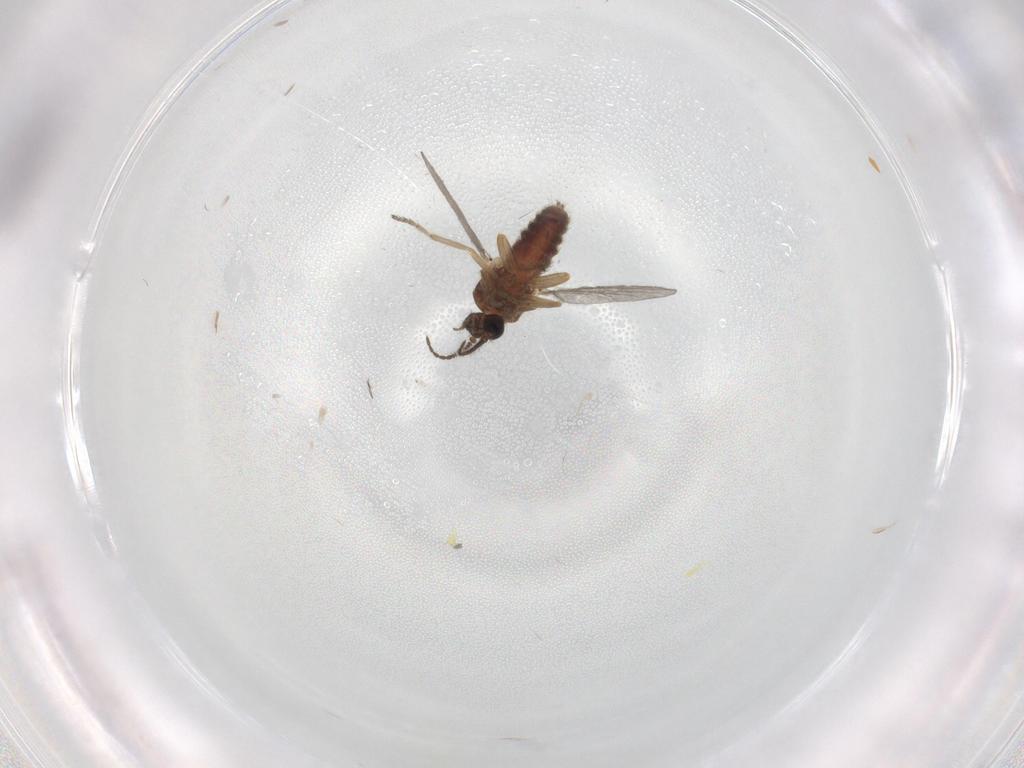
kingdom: Animalia
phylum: Arthropoda
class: Insecta
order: Diptera
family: Ceratopogonidae
